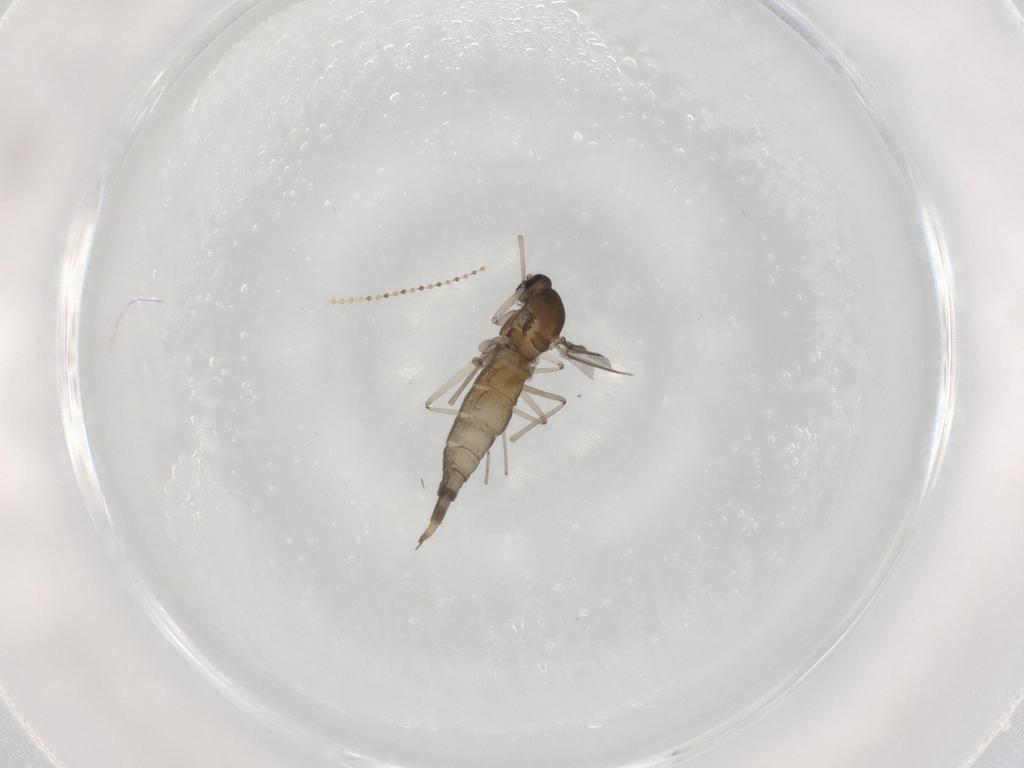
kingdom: Animalia
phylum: Arthropoda
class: Insecta
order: Diptera
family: Cecidomyiidae
